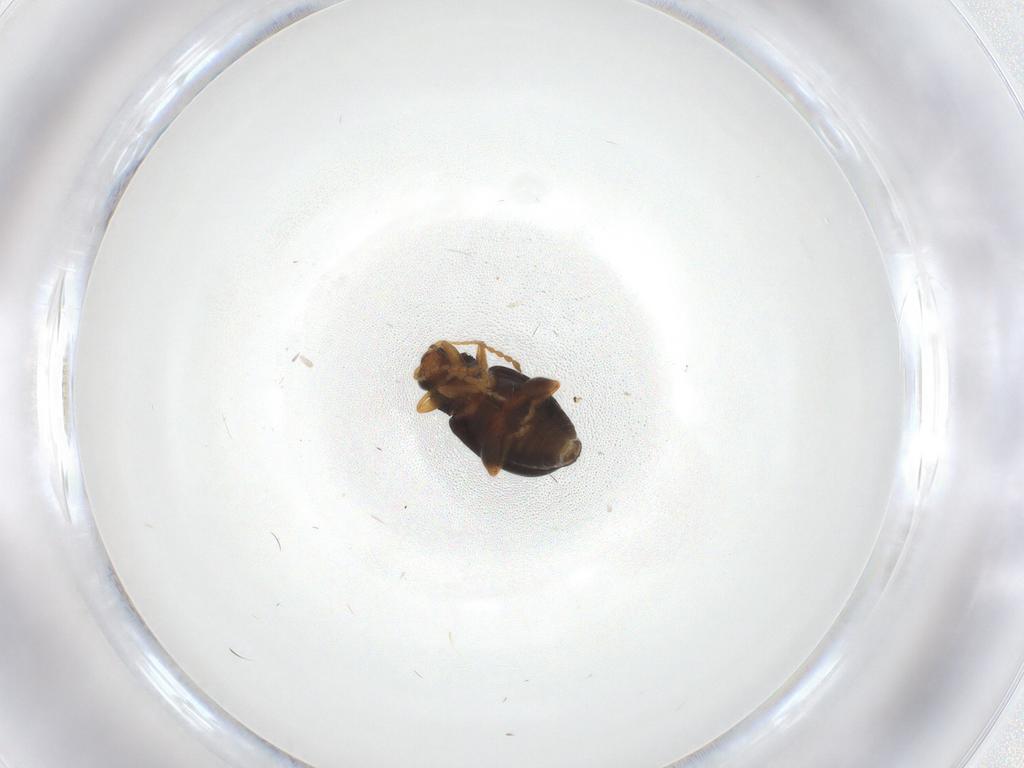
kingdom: Animalia
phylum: Arthropoda
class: Insecta
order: Coleoptera
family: Chrysomelidae
